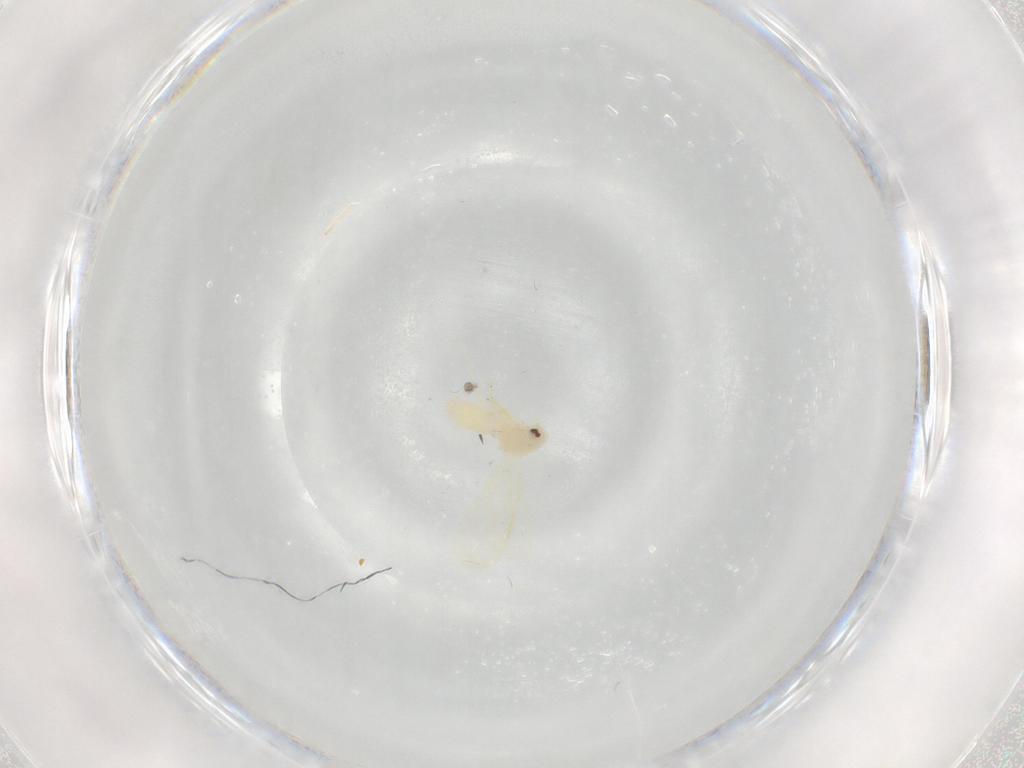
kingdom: Animalia
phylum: Arthropoda
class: Insecta
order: Hemiptera
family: Aleyrodidae
